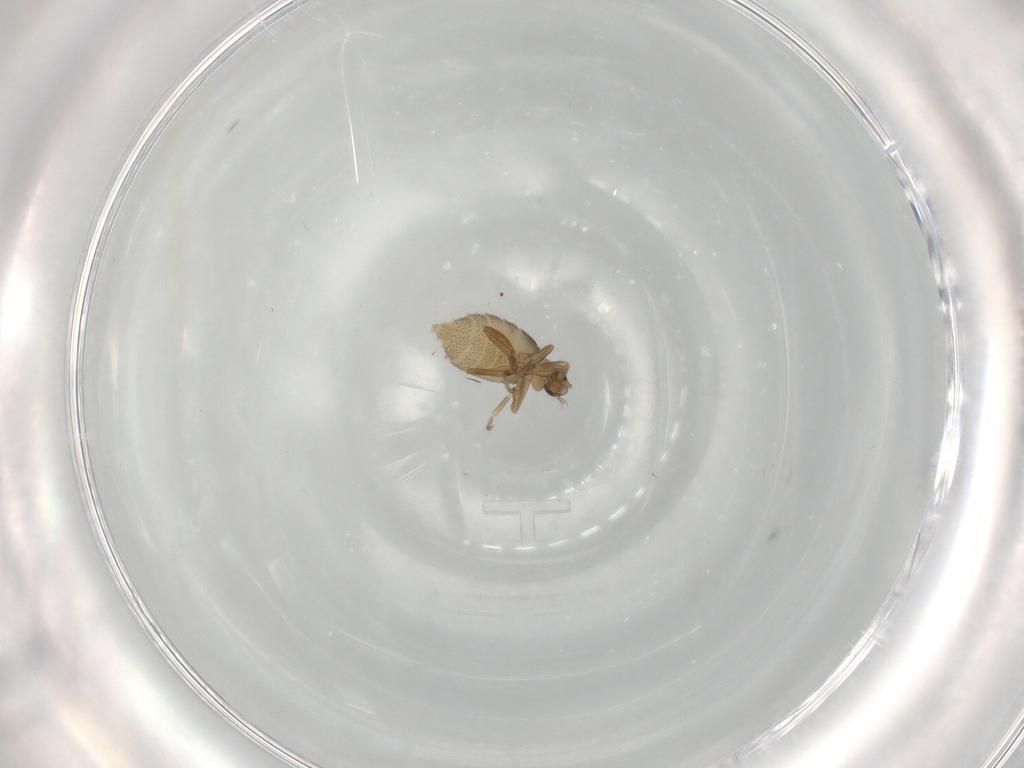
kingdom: Animalia
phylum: Arthropoda
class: Insecta
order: Diptera
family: Phoridae
